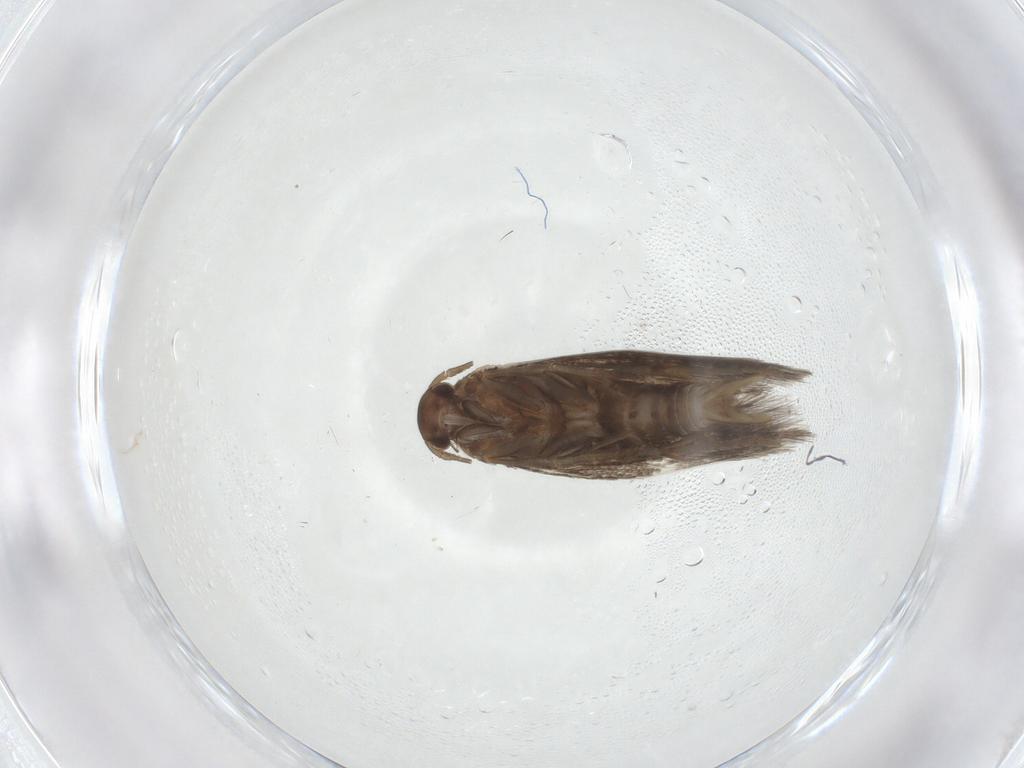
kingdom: Animalia
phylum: Arthropoda
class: Insecta
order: Lepidoptera
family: Elachistidae
